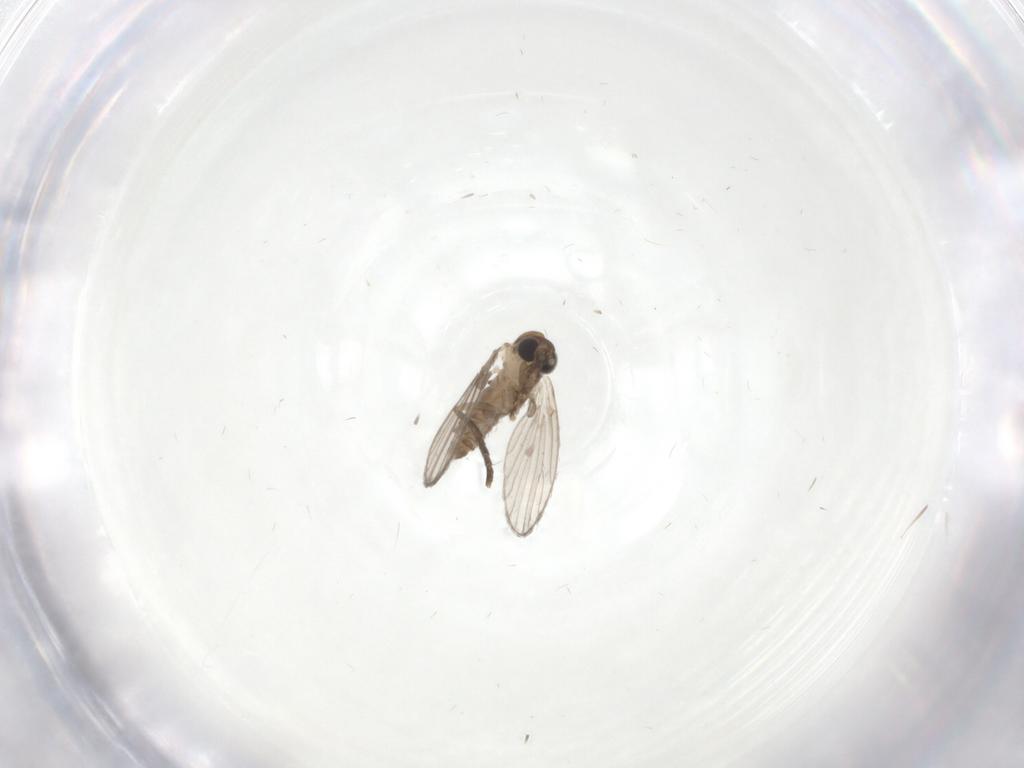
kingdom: Animalia
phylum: Arthropoda
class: Insecta
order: Diptera
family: Psychodidae
